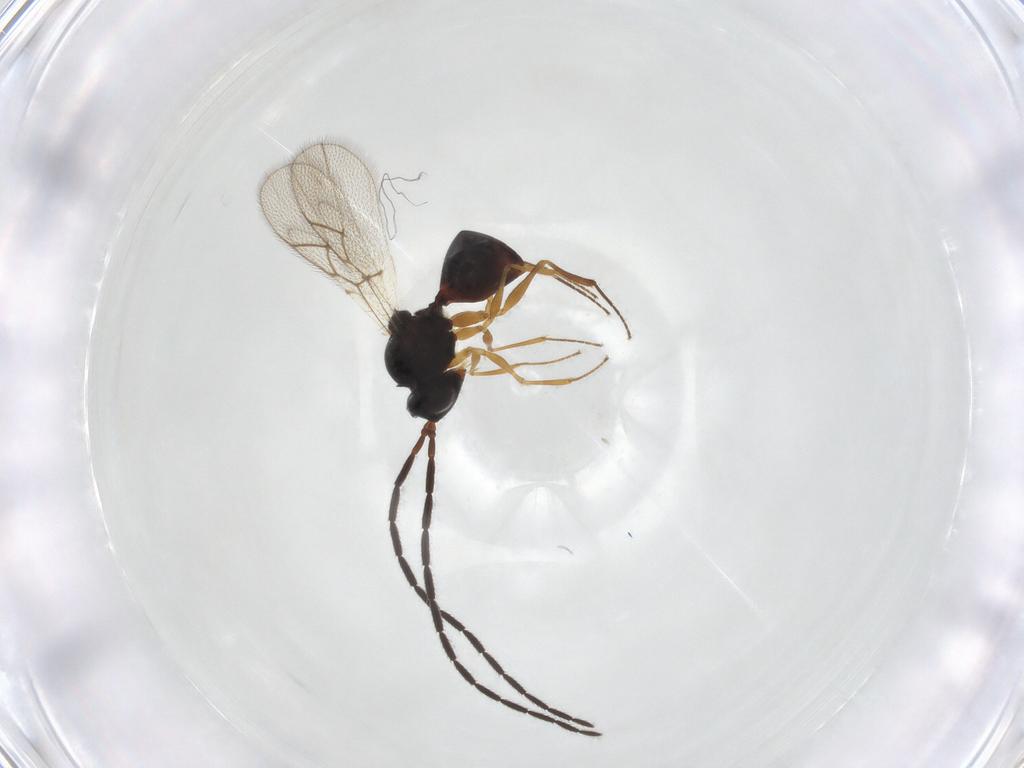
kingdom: Animalia
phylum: Arthropoda
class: Insecta
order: Hymenoptera
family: Scelionidae
